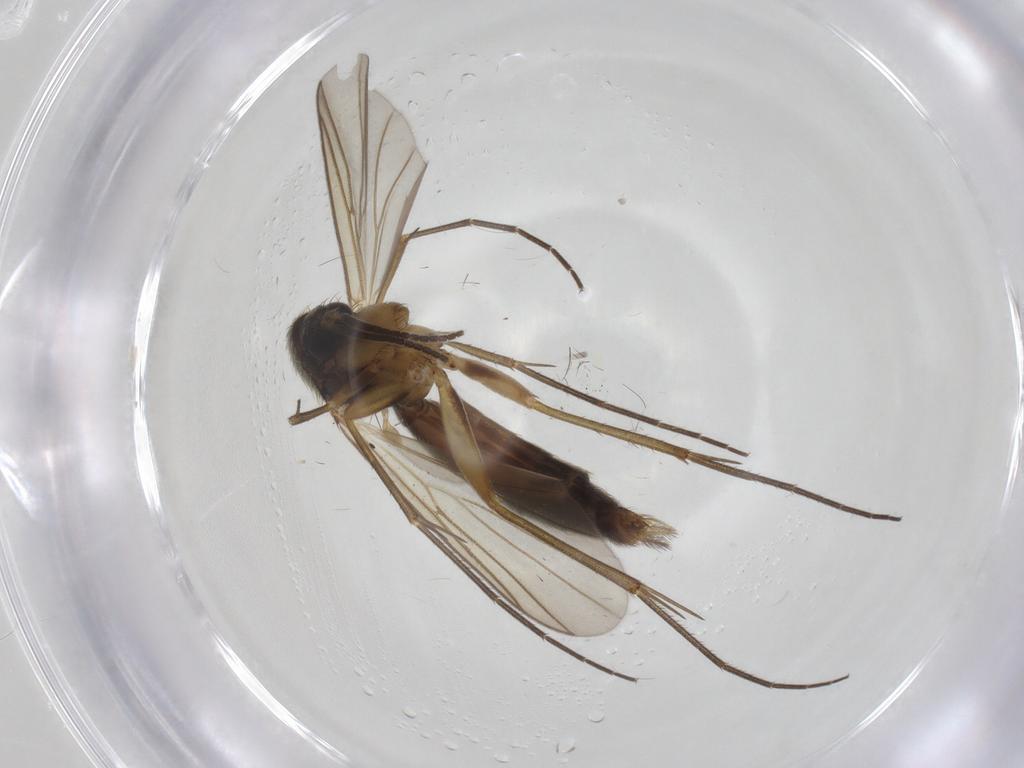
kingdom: Animalia
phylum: Arthropoda
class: Insecta
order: Diptera
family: Mycetophilidae
